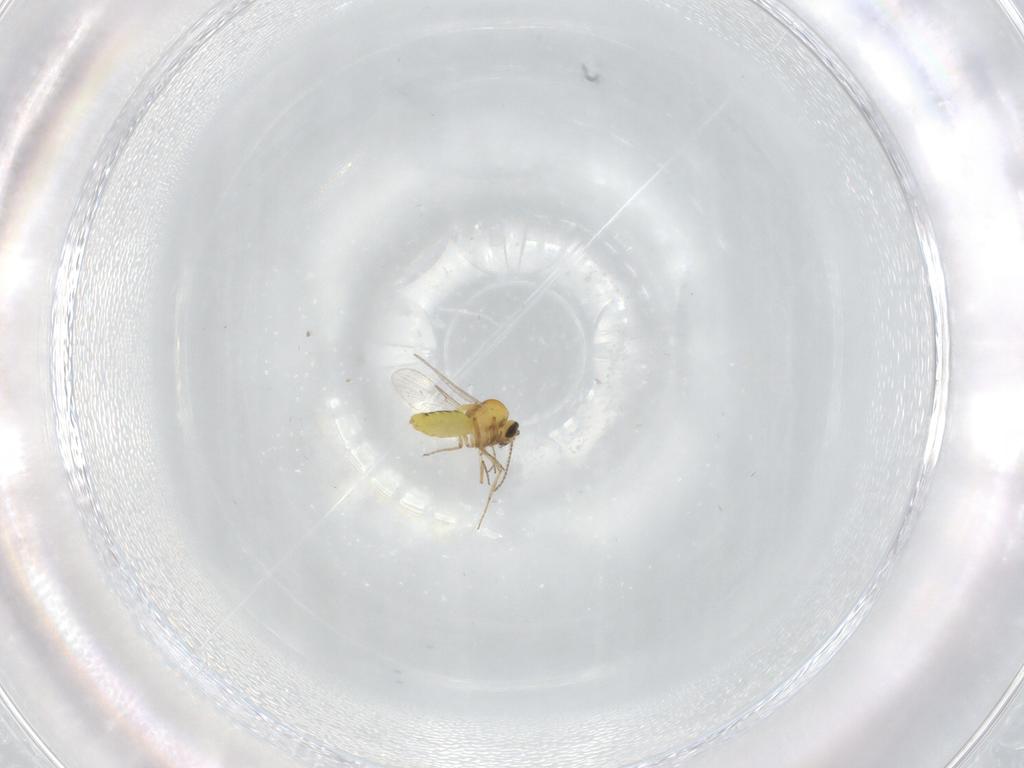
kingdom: Animalia
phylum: Arthropoda
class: Insecta
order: Diptera
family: Ceratopogonidae
